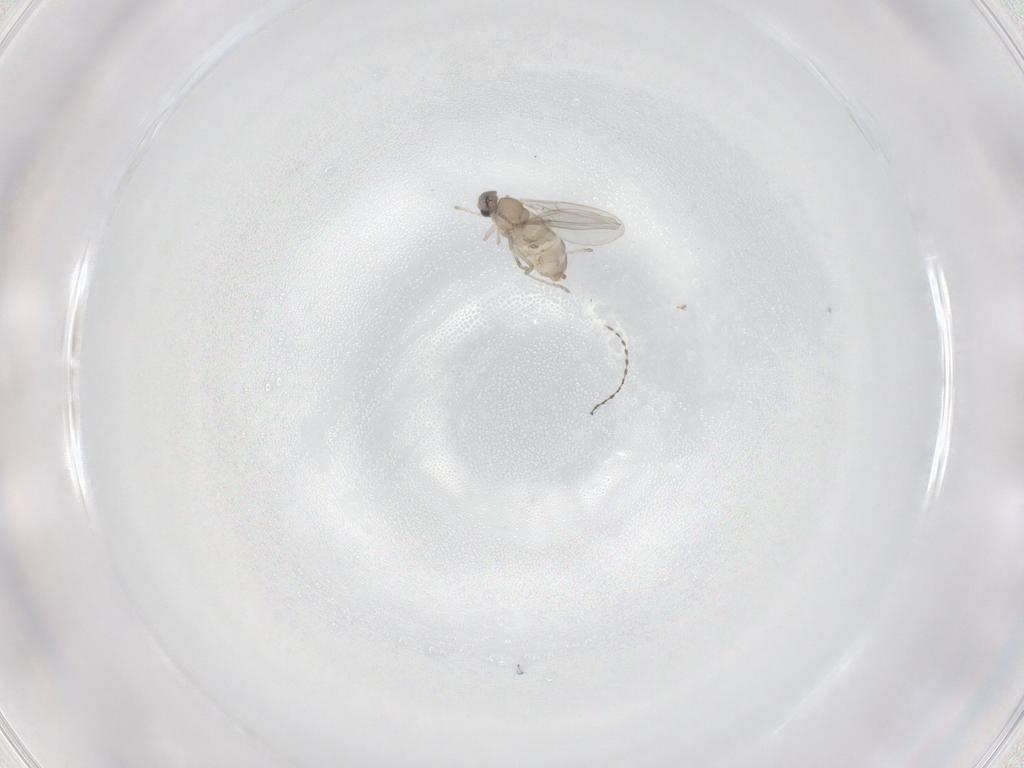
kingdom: Animalia
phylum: Arthropoda
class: Insecta
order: Diptera
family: Cecidomyiidae
